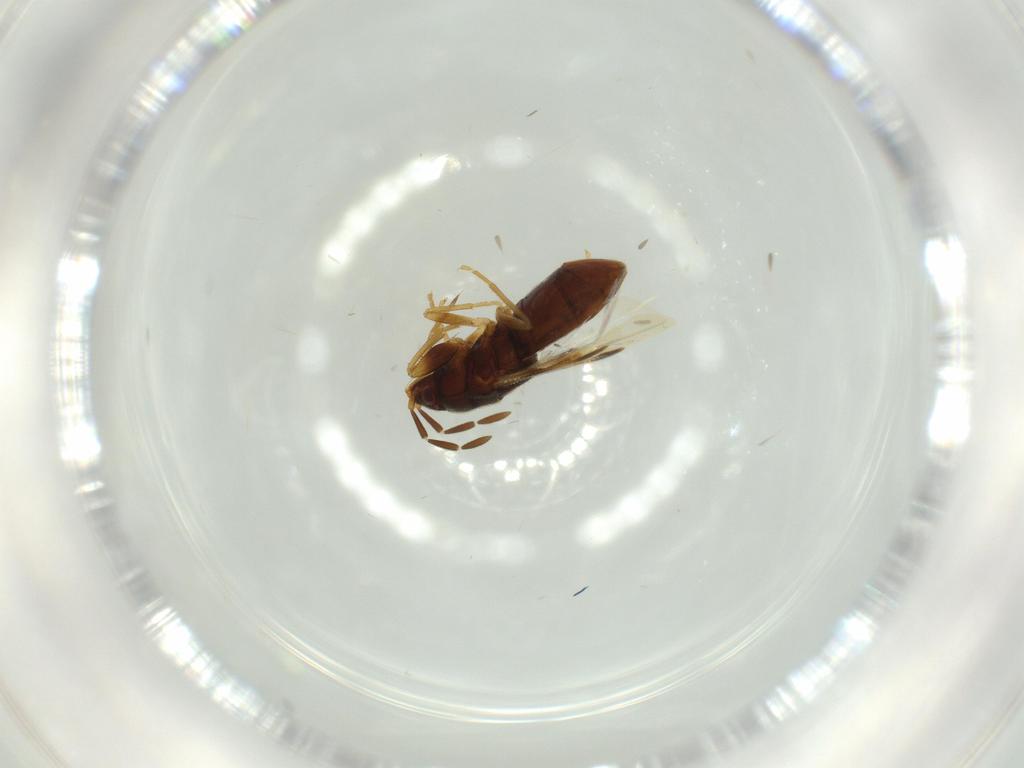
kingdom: Animalia
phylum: Arthropoda
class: Insecta
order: Hemiptera
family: Rhyparochromidae
